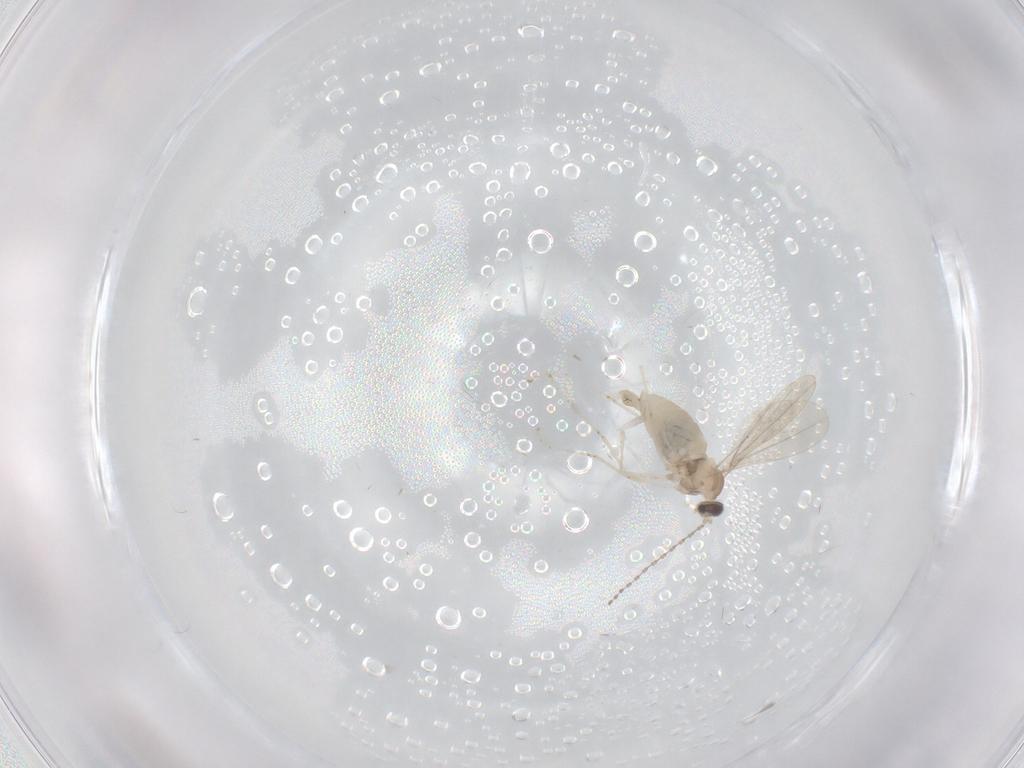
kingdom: Animalia
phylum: Arthropoda
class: Insecta
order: Diptera
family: Cecidomyiidae
